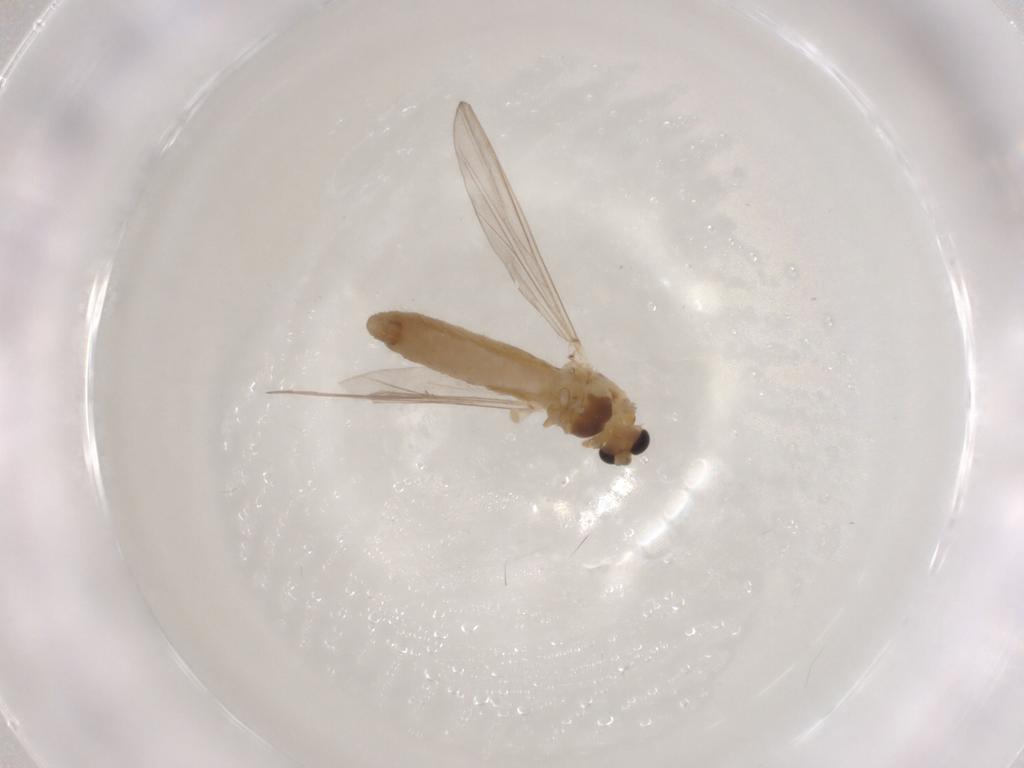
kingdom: Animalia
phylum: Arthropoda
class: Insecta
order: Diptera
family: Chironomidae
